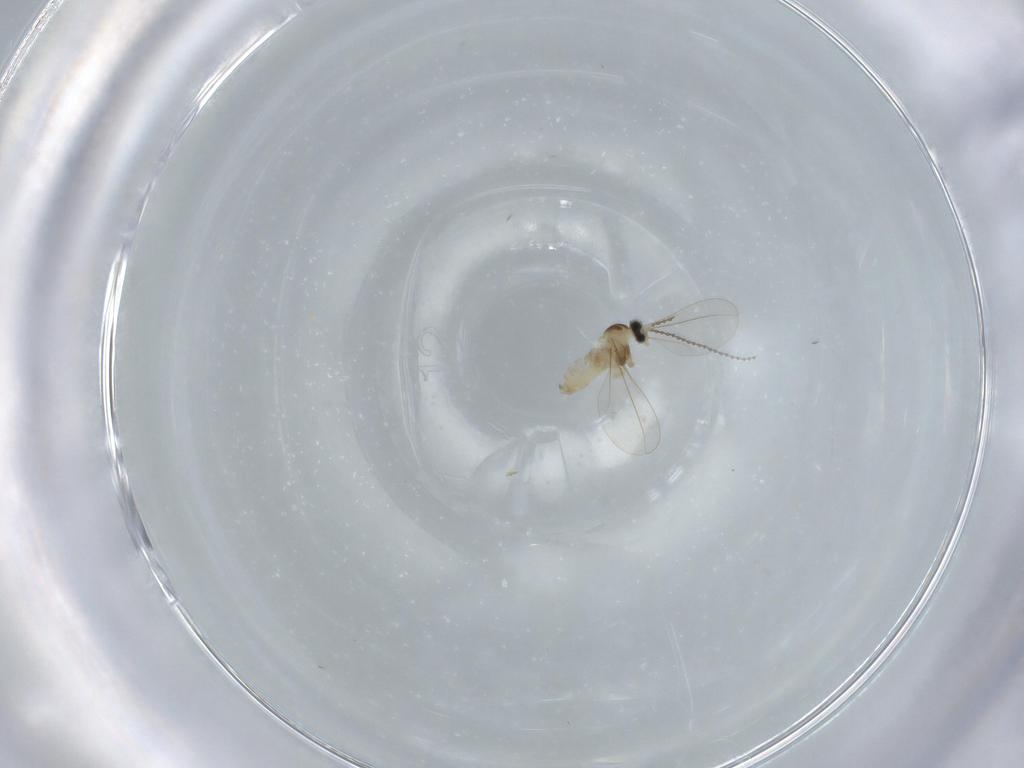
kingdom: Animalia
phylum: Arthropoda
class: Insecta
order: Diptera
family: Cecidomyiidae
